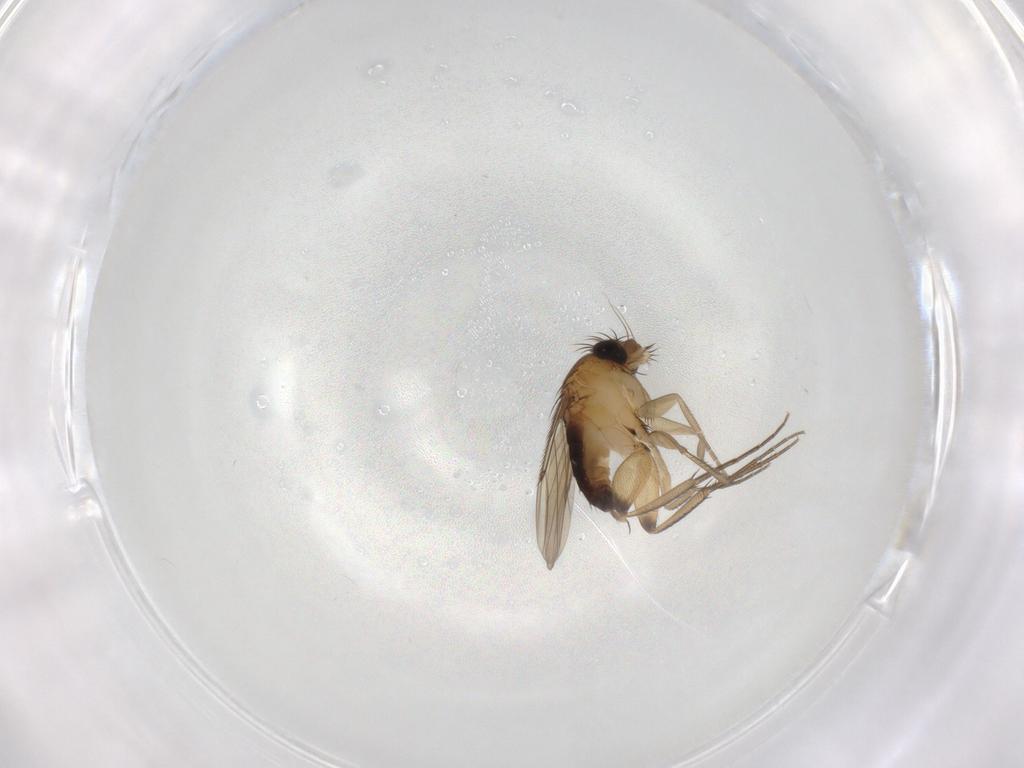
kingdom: Animalia
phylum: Arthropoda
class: Insecta
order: Diptera
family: Phoridae
